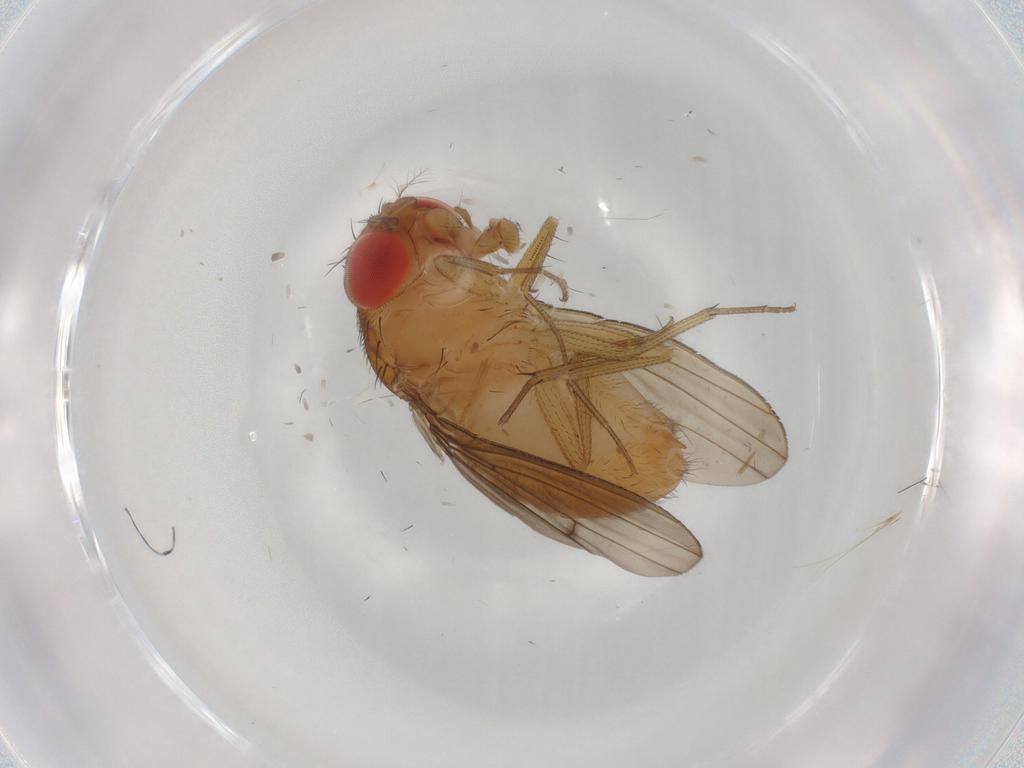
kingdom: Animalia
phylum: Arthropoda
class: Insecta
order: Diptera
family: Drosophilidae
